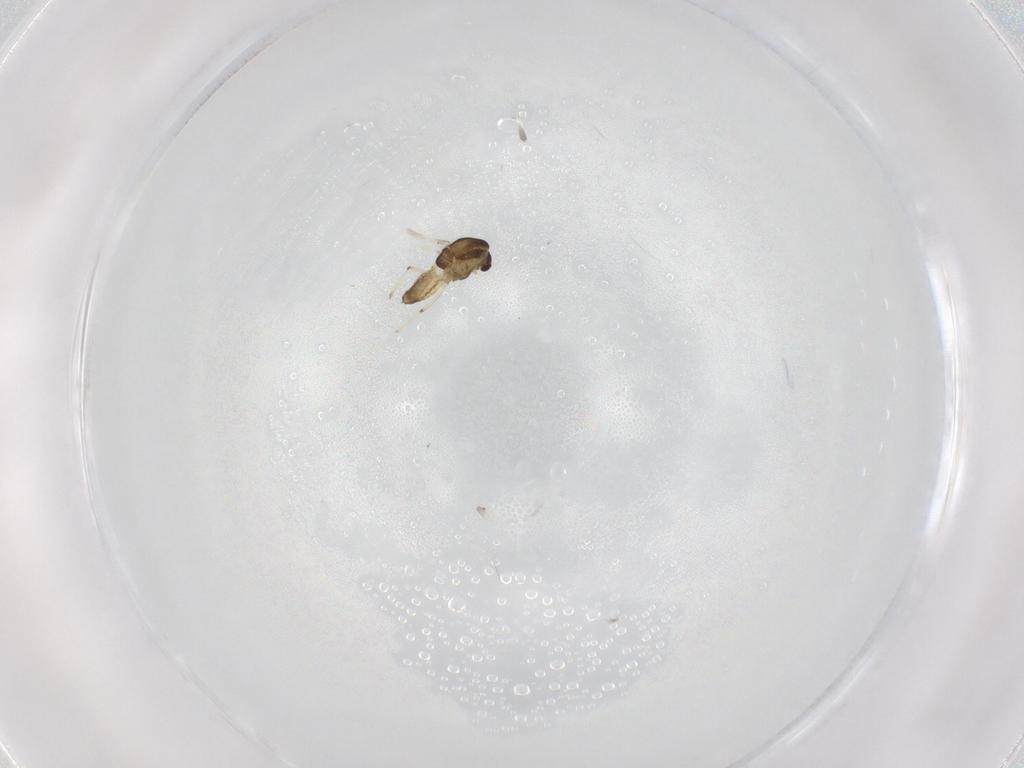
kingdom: Animalia
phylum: Arthropoda
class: Insecta
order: Diptera
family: Chironomidae
